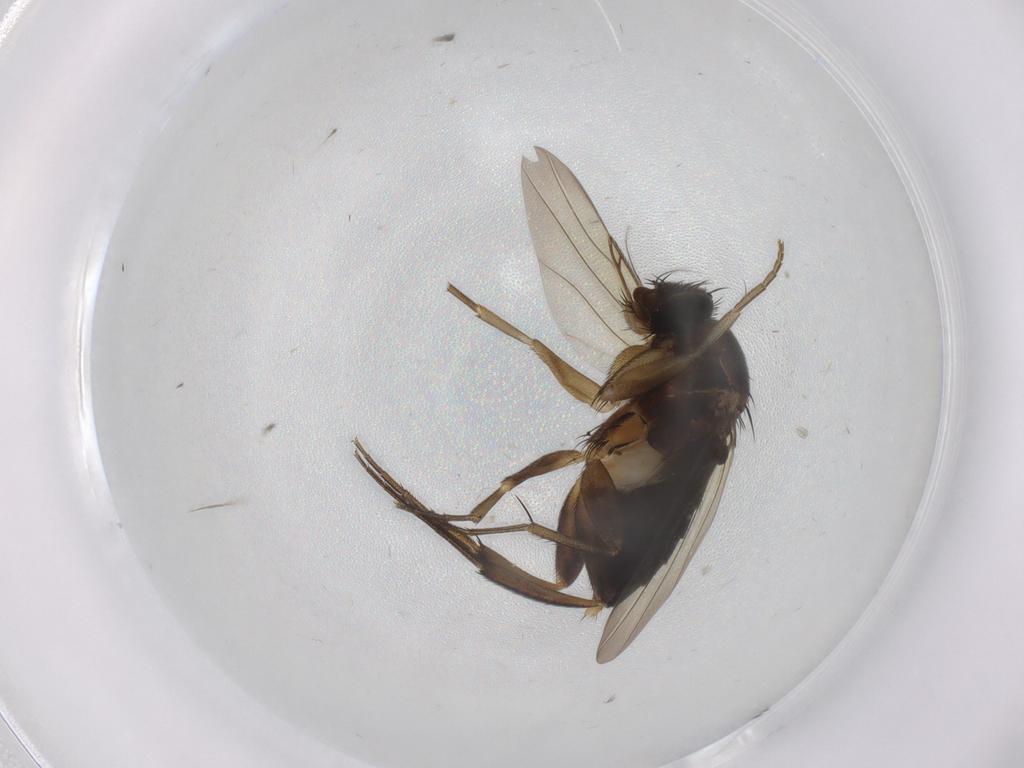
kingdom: Animalia
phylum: Arthropoda
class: Insecta
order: Diptera
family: Phoridae
